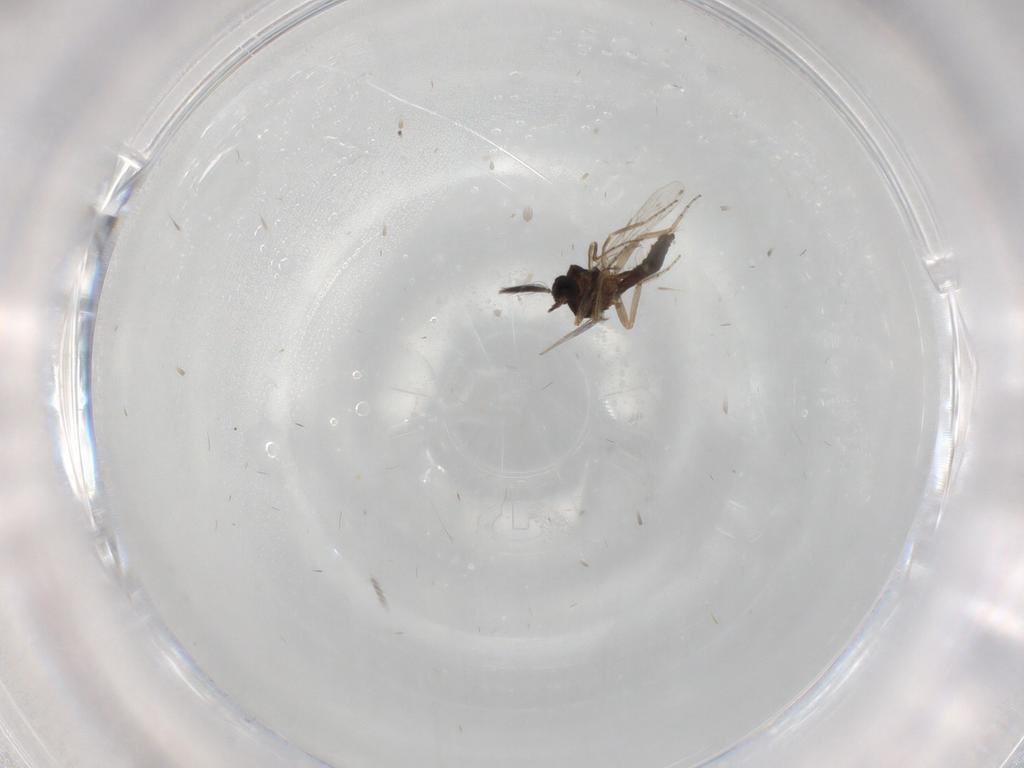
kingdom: Animalia
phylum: Arthropoda
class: Insecta
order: Diptera
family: Ceratopogonidae
